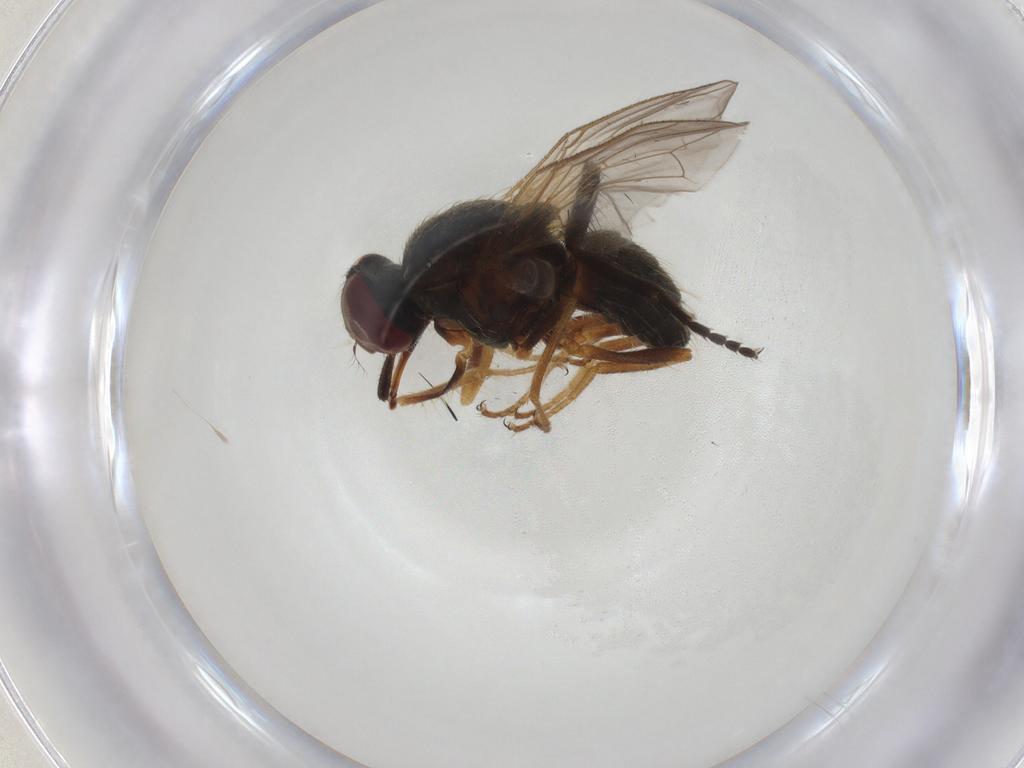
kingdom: Animalia
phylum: Arthropoda
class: Insecta
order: Diptera
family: Muscidae
